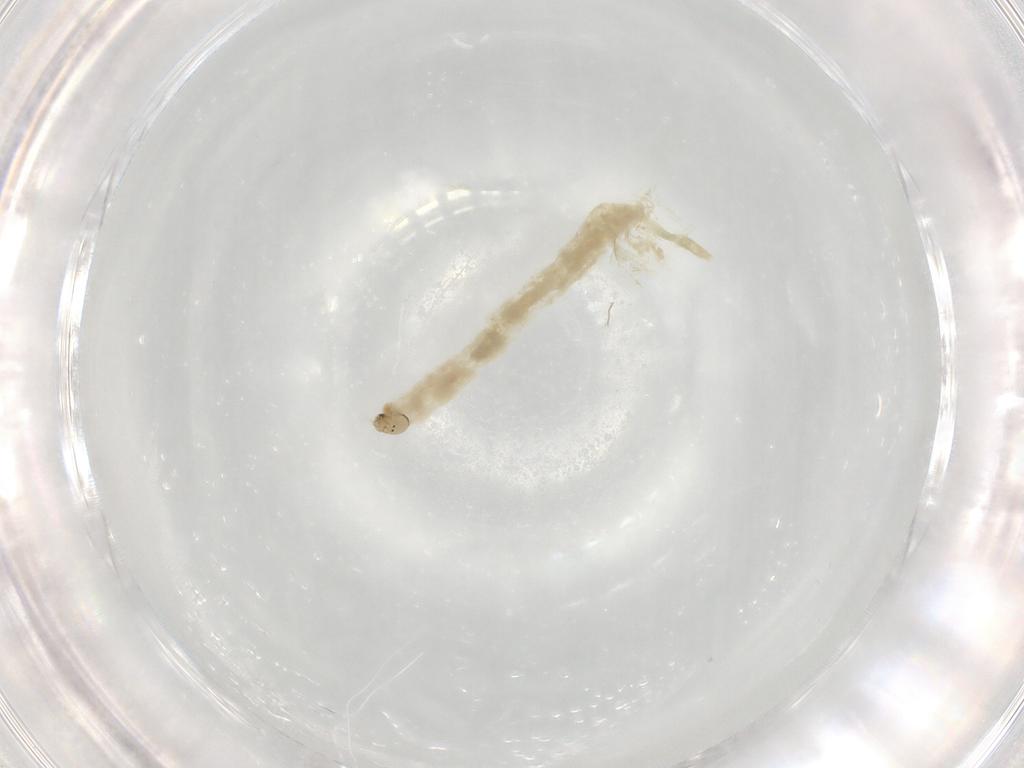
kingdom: Animalia
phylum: Arthropoda
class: Insecta
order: Diptera
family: Chironomidae
